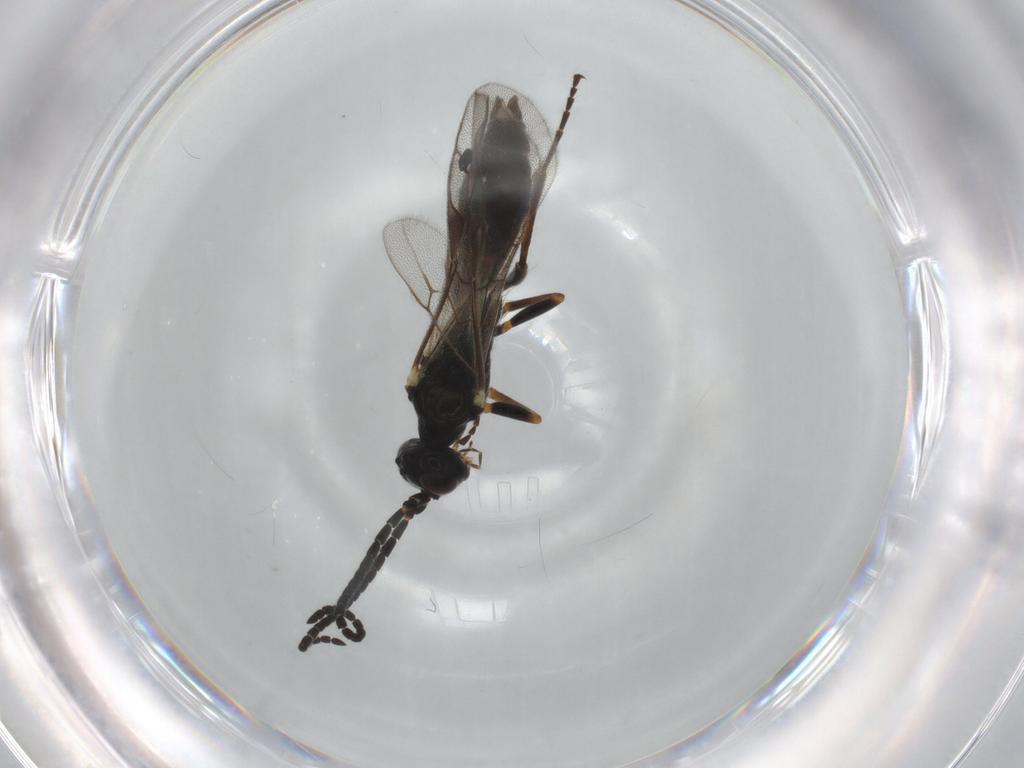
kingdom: Animalia
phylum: Arthropoda
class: Insecta
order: Hymenoptera
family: Ichneumonidae
